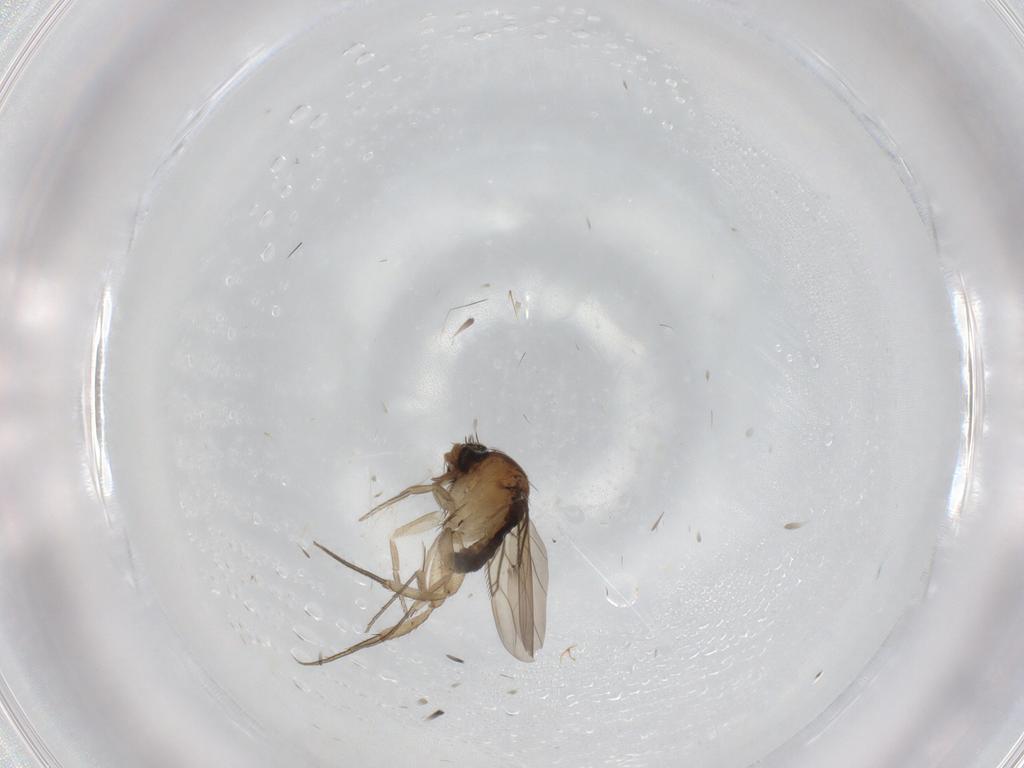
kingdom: Animalia
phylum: Arthropoda
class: Insecta
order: Diptera
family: Phoridae
